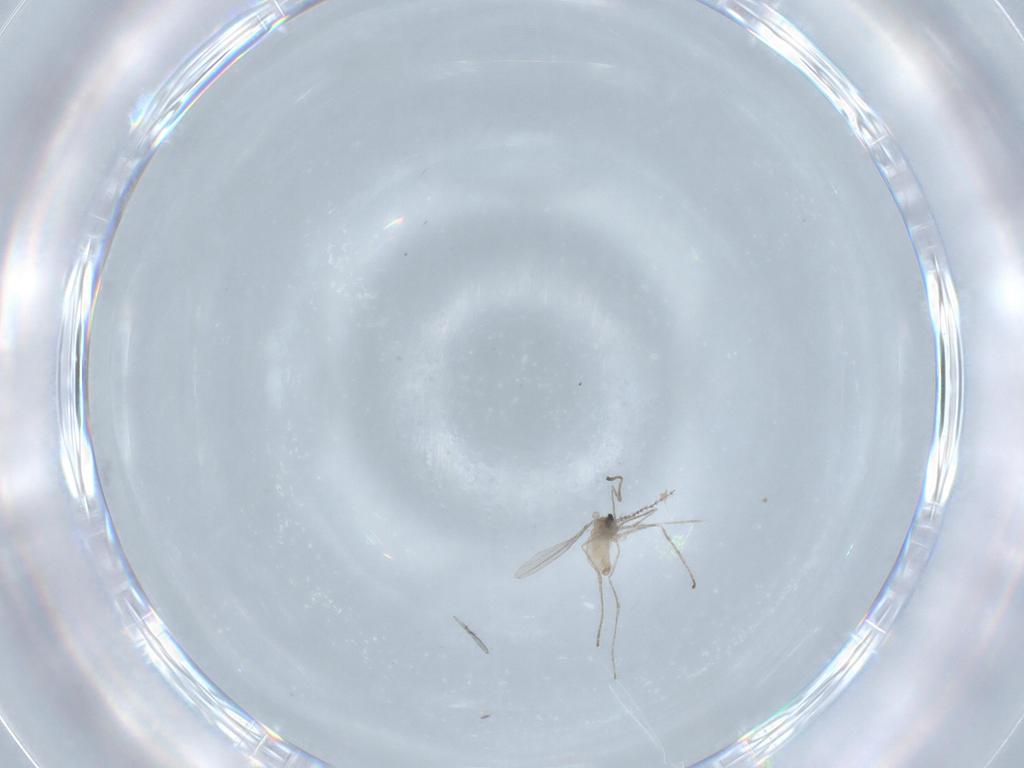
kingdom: Animalia
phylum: Arthropoda
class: Insecta
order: Diptera
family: Cecidomyiidae
